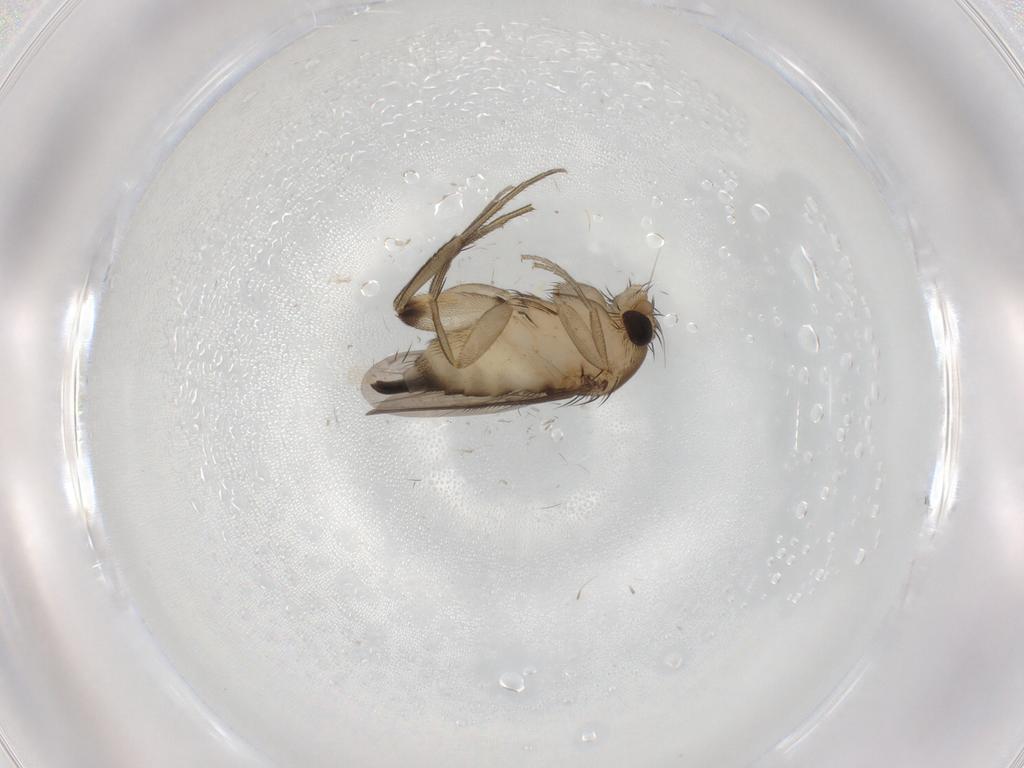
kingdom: Animalia
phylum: Arthropoda
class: Insecta
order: Diptera
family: Phoridae
